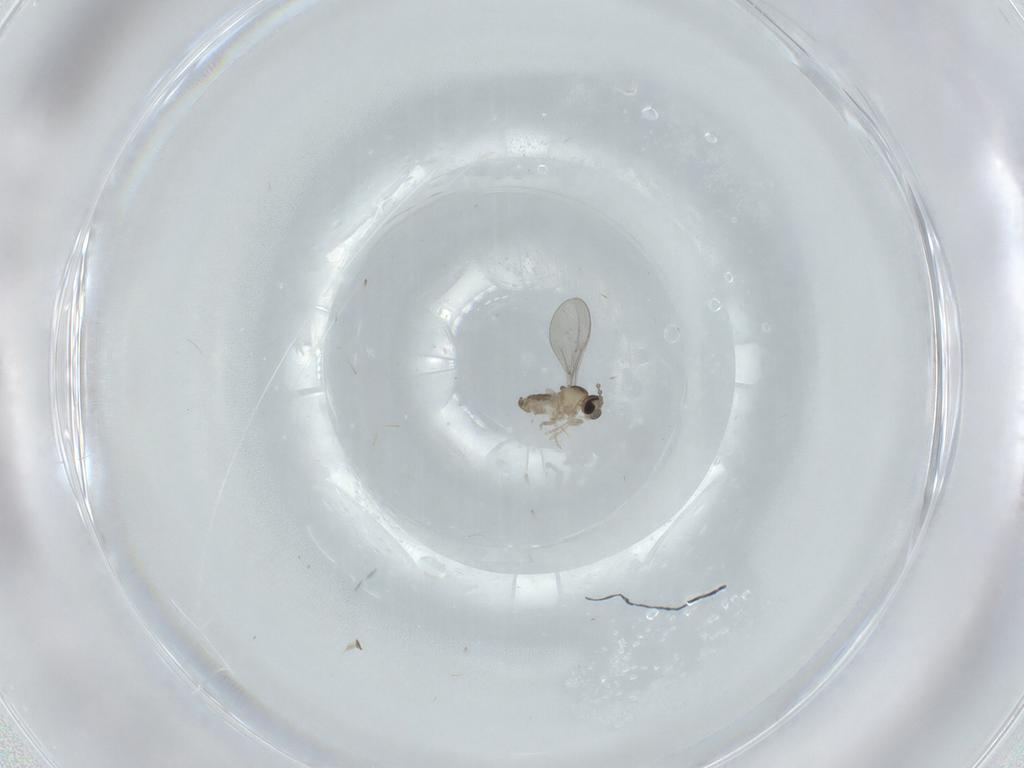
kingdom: Animalia
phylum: Arthropoda
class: Insecta
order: Diptera
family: Cecidomyiidae
